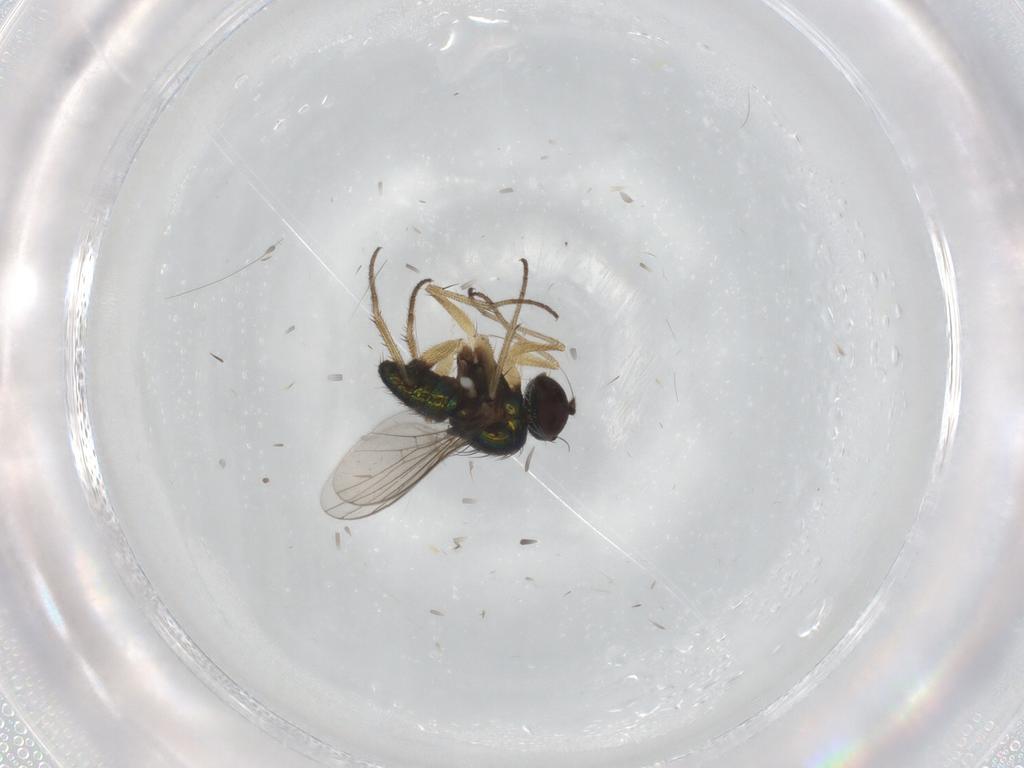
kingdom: Animalia
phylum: Arthropoda
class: Insecta
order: Diptera
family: Dolichopodidae
